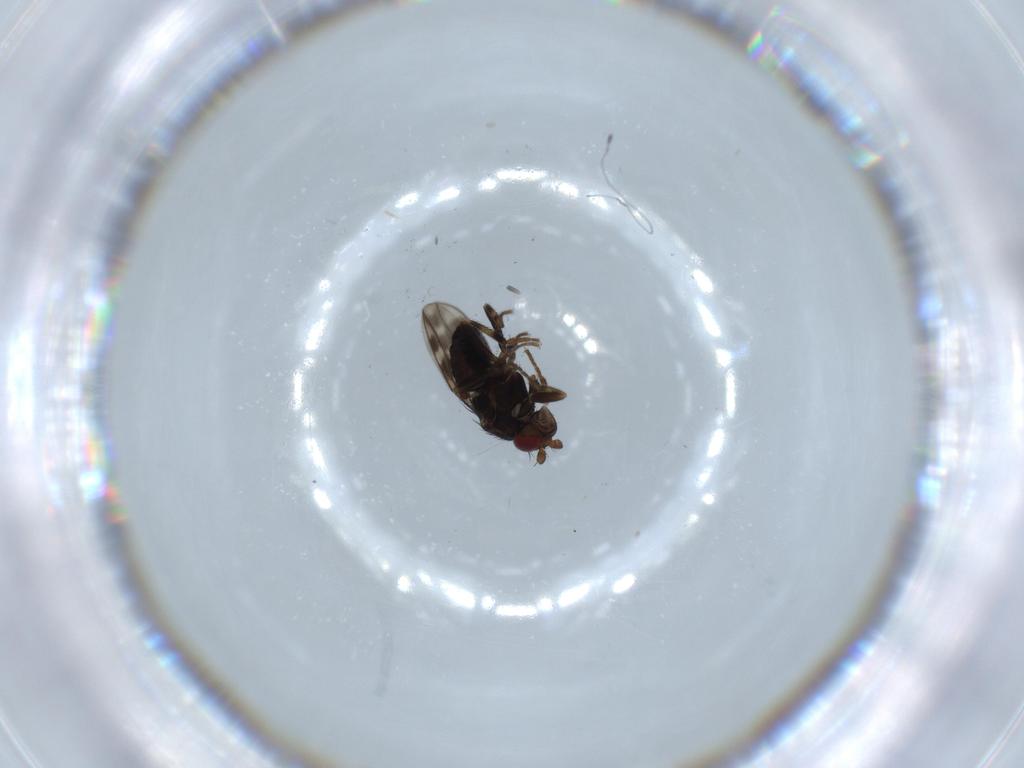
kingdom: Animalia
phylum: Arthropoda
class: Insecta
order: Diptera
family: Sphaeroceridae
